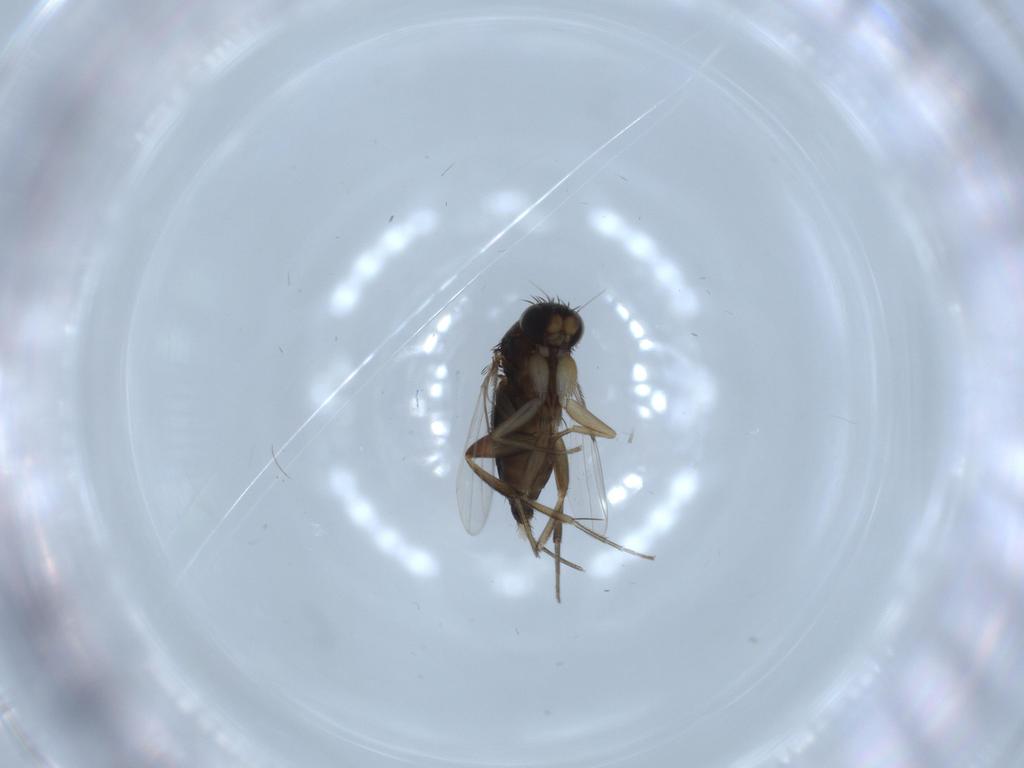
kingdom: Animalia
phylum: Arthropoda
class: Insecta
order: Diptera
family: Phoridae
